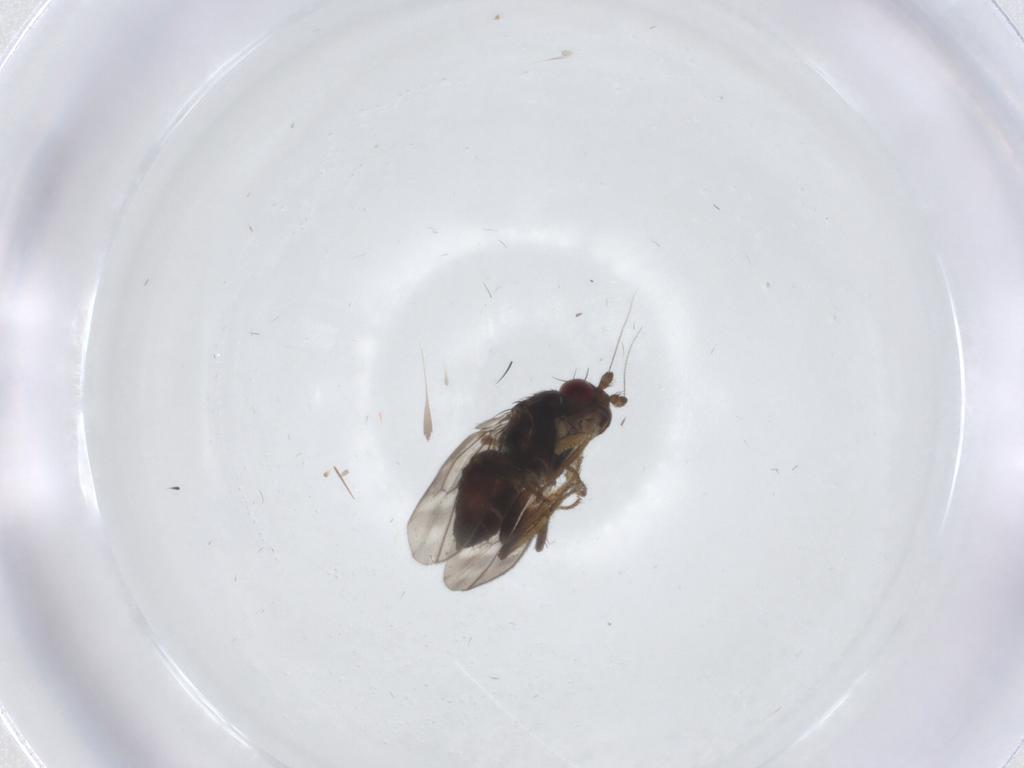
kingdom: Animalia
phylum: Arthropoda
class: Insecta
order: Diptera
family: Sphaeroceridae
